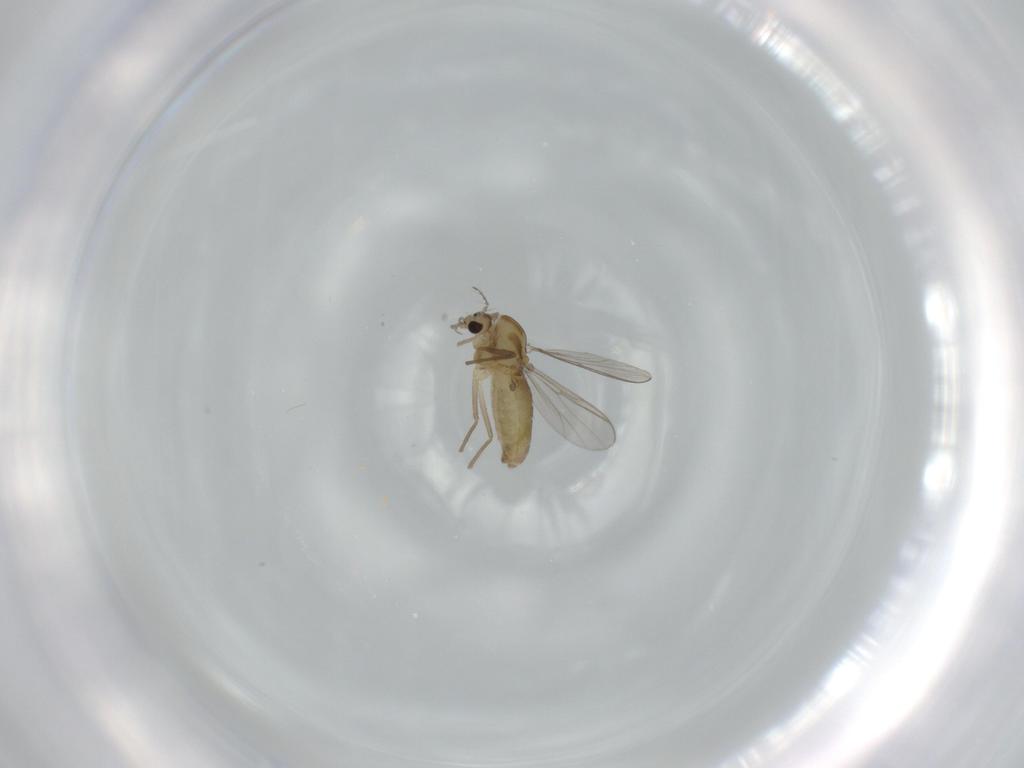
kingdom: Animalia
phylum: Arthropoda
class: Insecta
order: Diptera
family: Chironomidae
